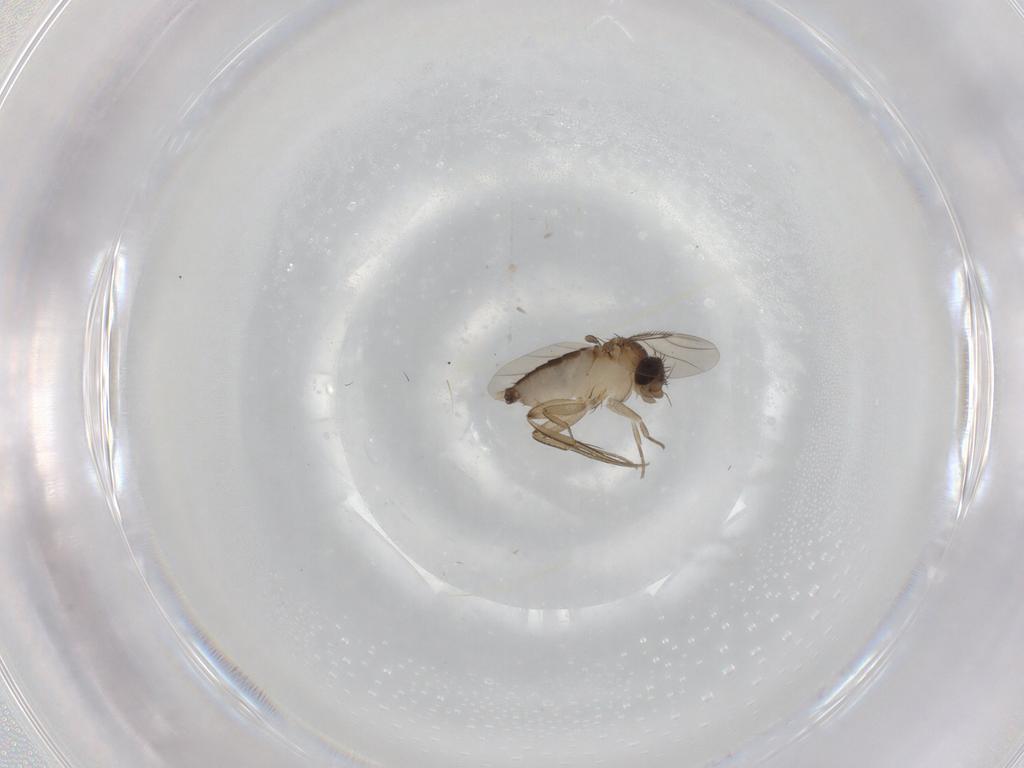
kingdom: Animalia
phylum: Arthropoda
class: Insecta
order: Diptera
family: Phoridae
